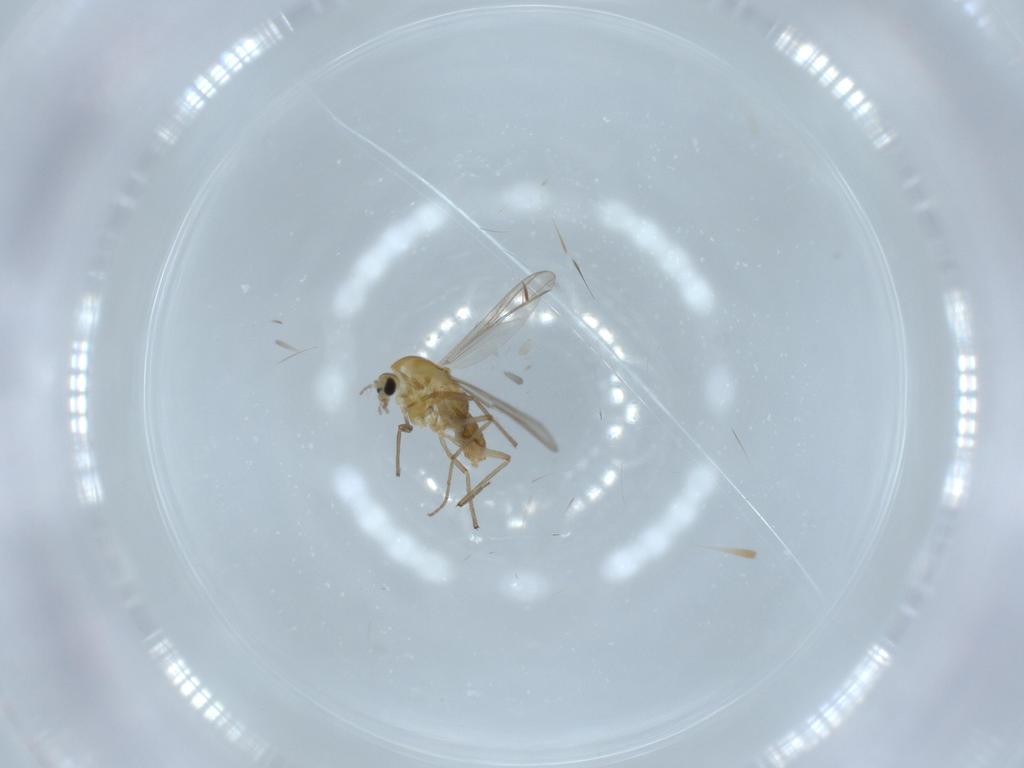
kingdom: Animalia
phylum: Arthropoda
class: Insecta
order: Diptera
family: Chironomidae
